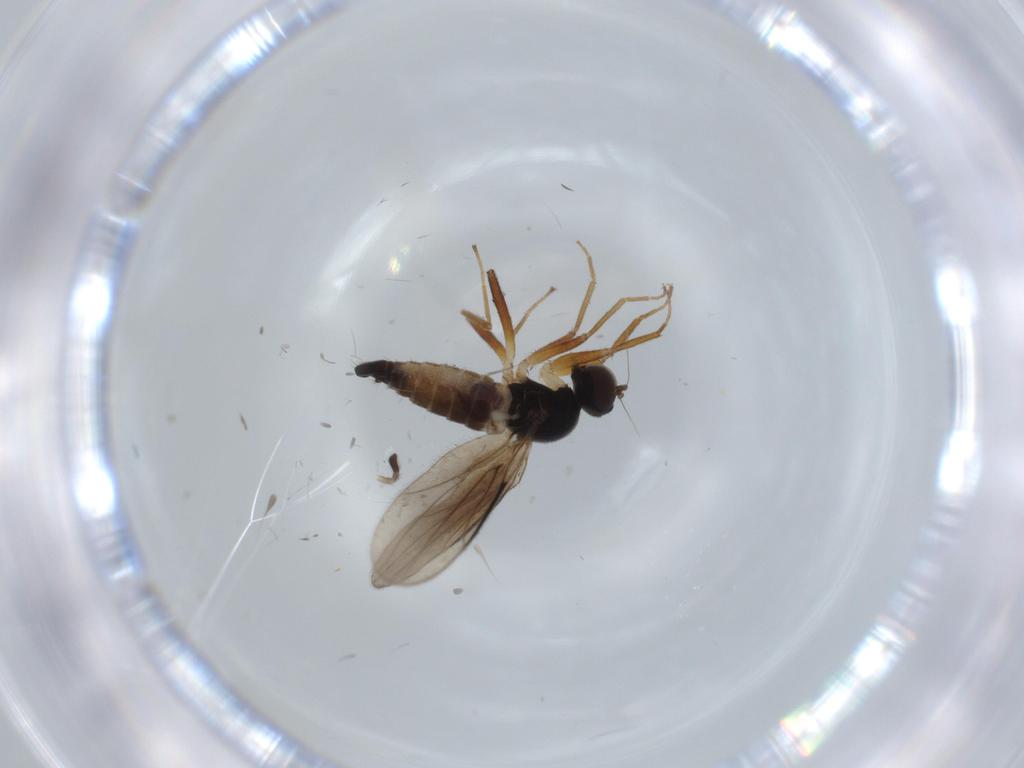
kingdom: Animalia
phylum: Arthropoda
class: Insecta
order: Diptera
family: Hybotidae
